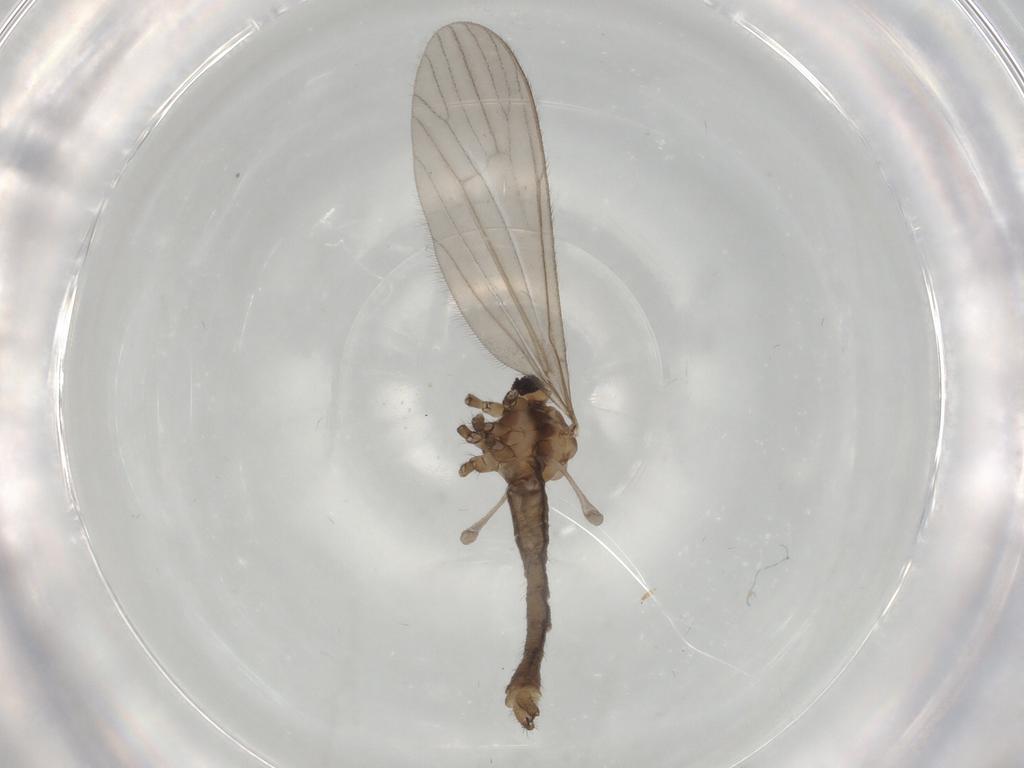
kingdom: Animalia
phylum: Arthropoda
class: Insecta
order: Diptera
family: Limoniidae
